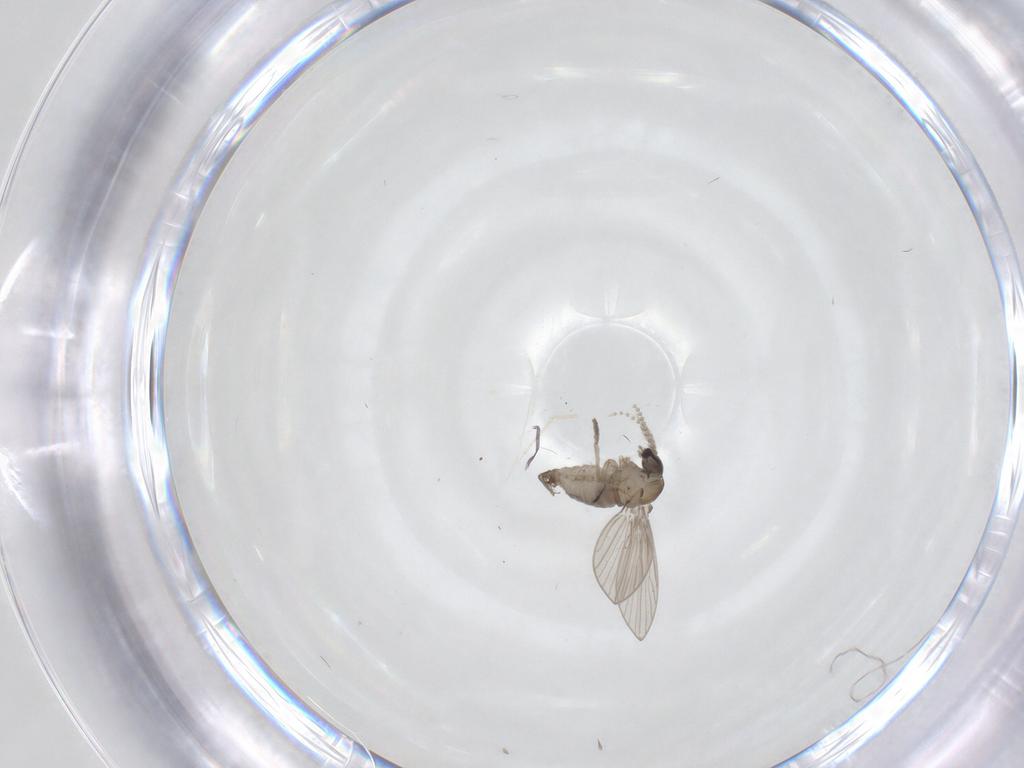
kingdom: Animalia
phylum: Arthropoda
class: Insecta
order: Diptera
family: Psychodidae
